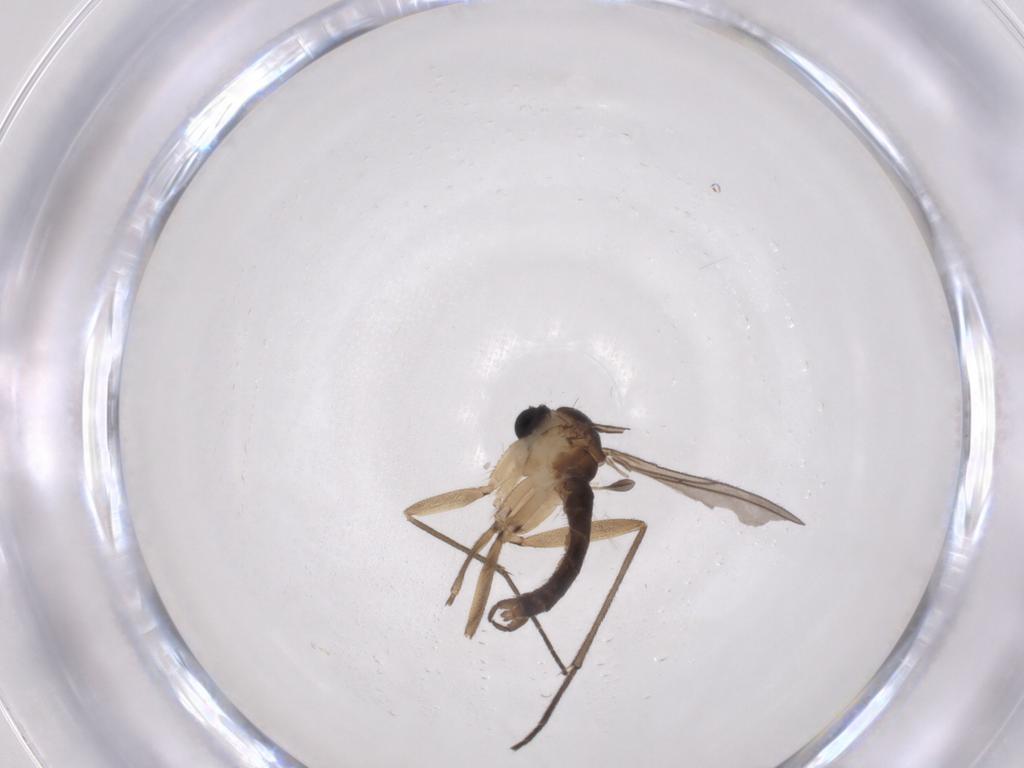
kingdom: Animalia
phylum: Arthropoda
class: Insecta
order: Diptera
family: Sciaridae
